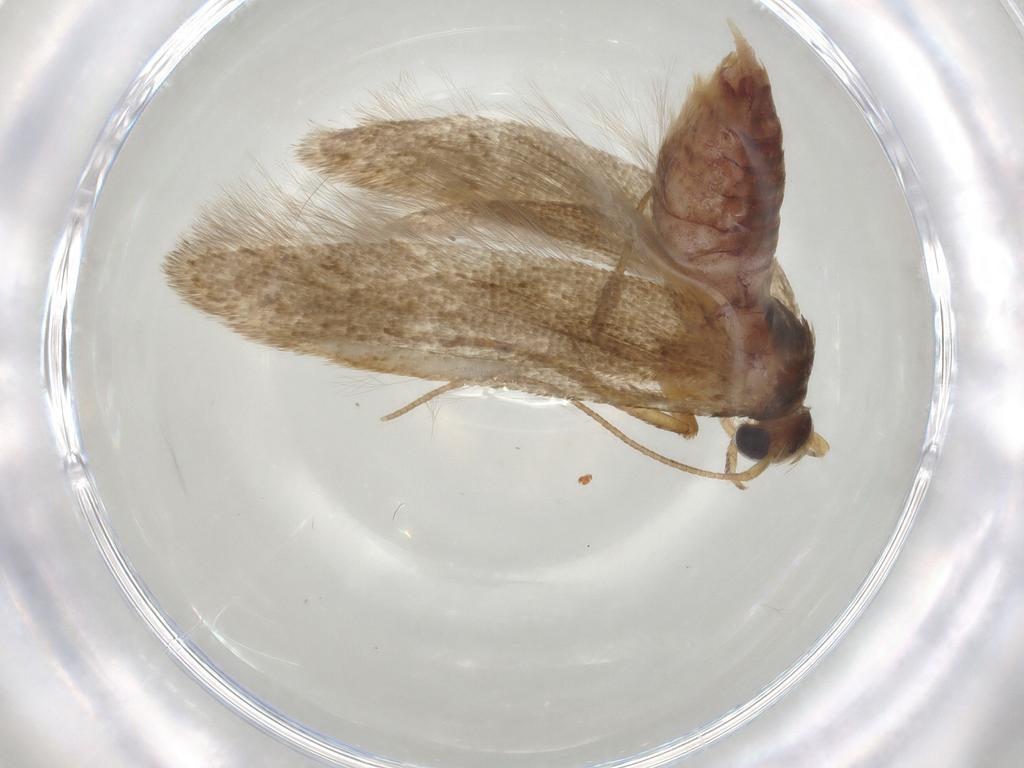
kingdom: Animalia
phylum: Arthropoda
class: Insecta
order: Lepidoptera
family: Blastobasidae
